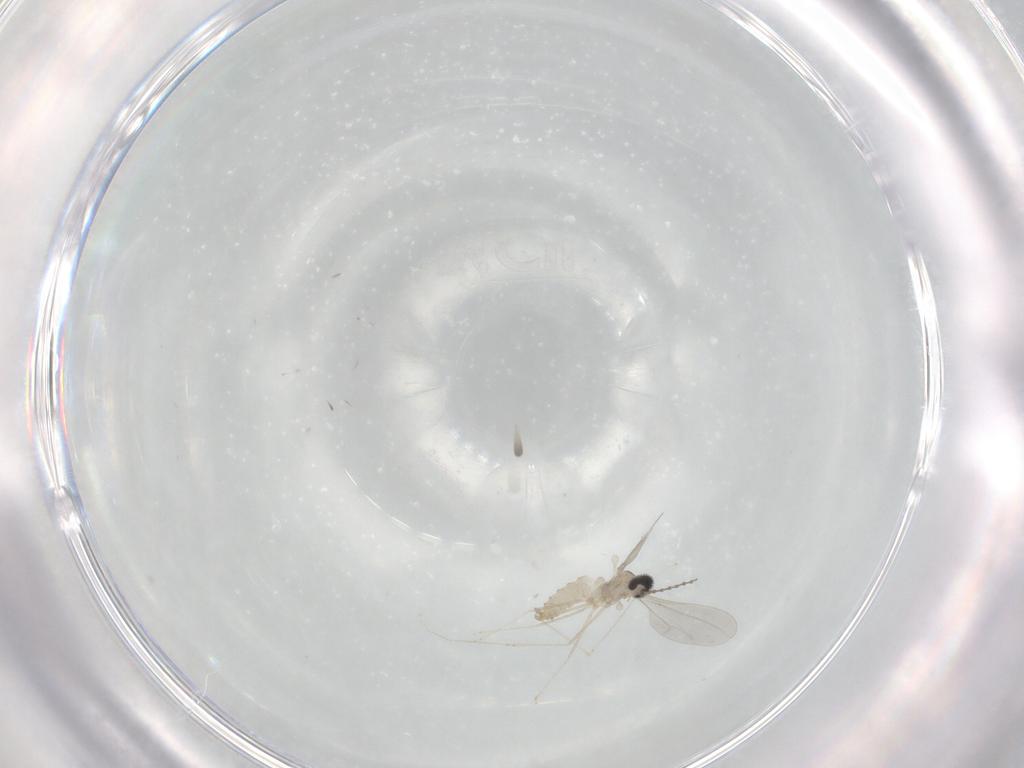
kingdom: Animalia
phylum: Arthropoda
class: Insecta
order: Diptera
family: Cecidomyiidae
